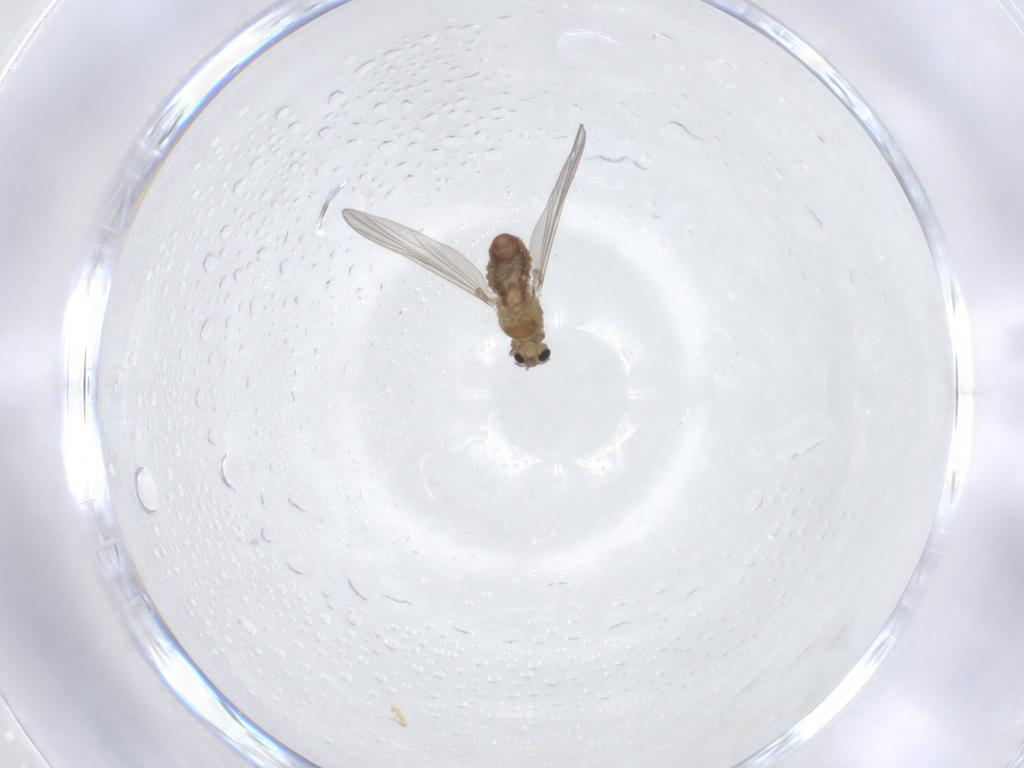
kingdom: Animalia
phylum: Arthropoda
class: Insecta
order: Diptera
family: Chironomidae
